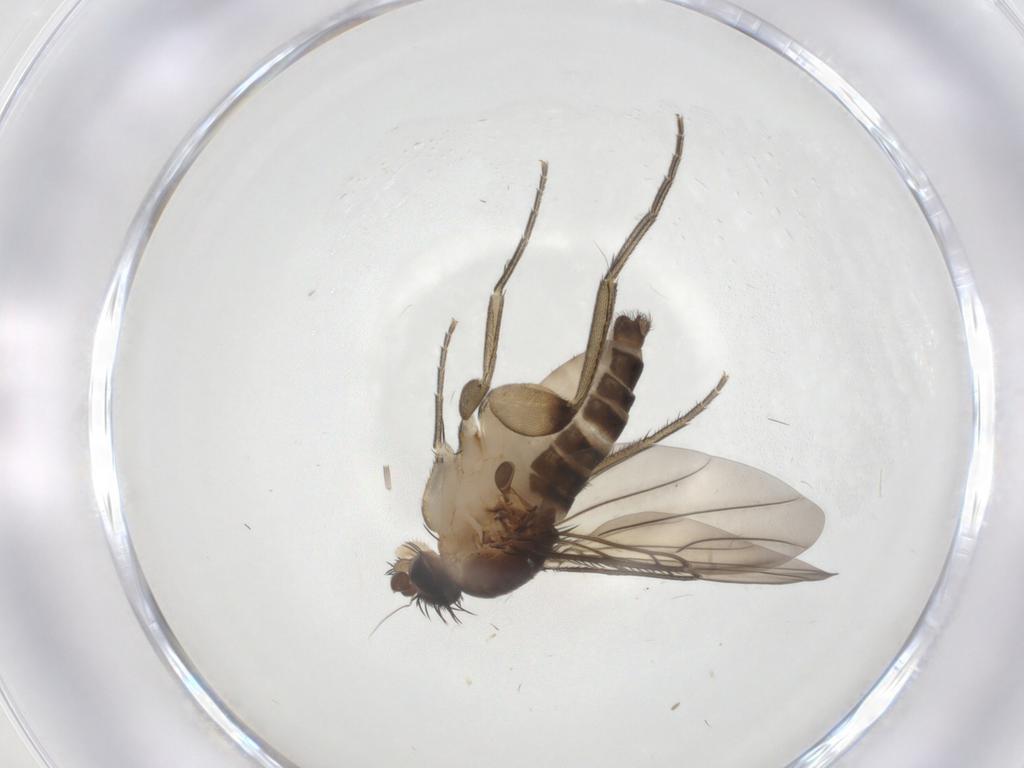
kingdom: Animalia
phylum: Arthropoda
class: Insecta
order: Diptera
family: Phoridae
